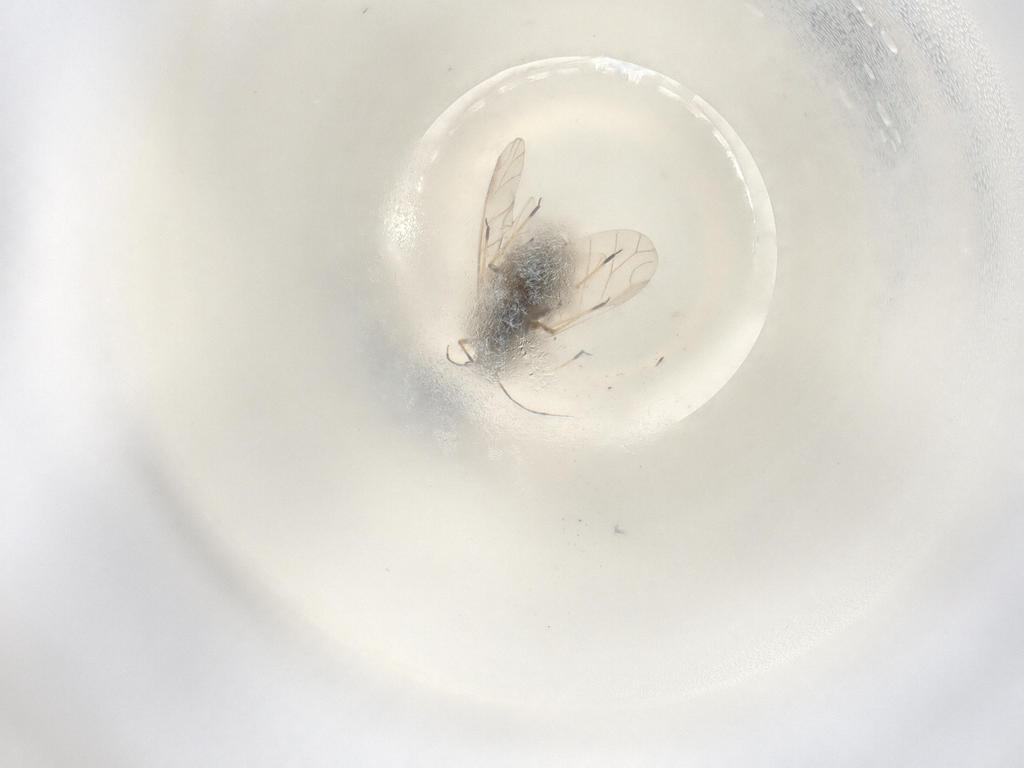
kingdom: Animalia
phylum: Arthropoda
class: Insecta
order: Hemiptera
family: Aphididae
